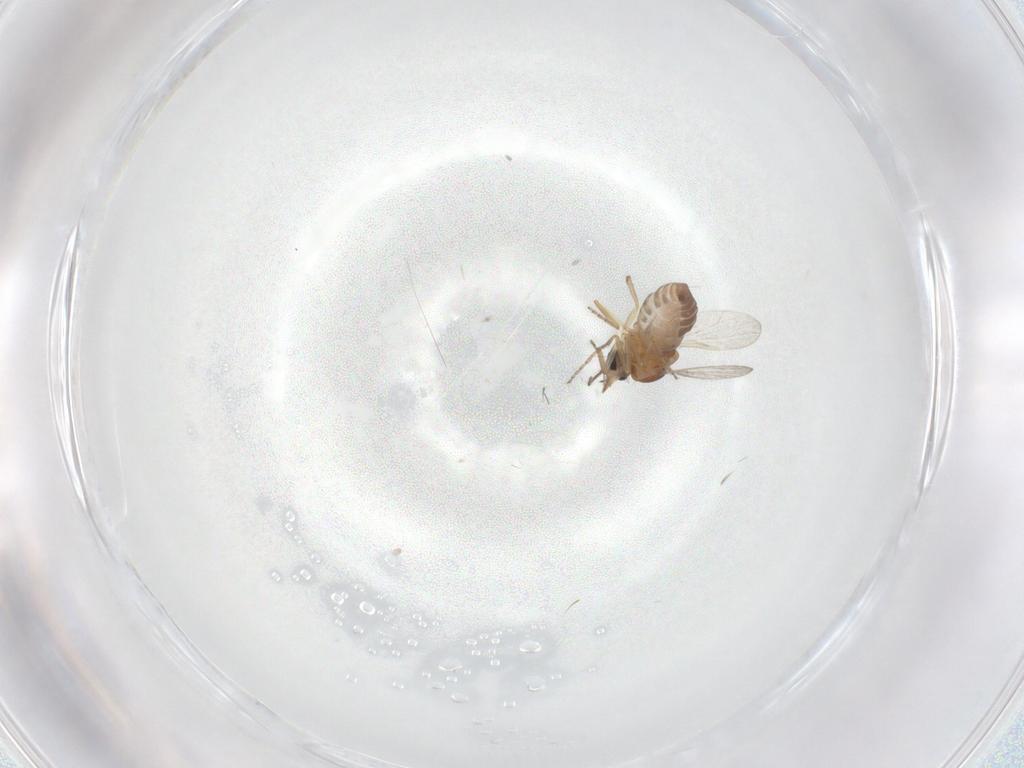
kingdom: Animalia
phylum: Arthropoda
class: Insecta
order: Diptera
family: Ceratopogonidae
